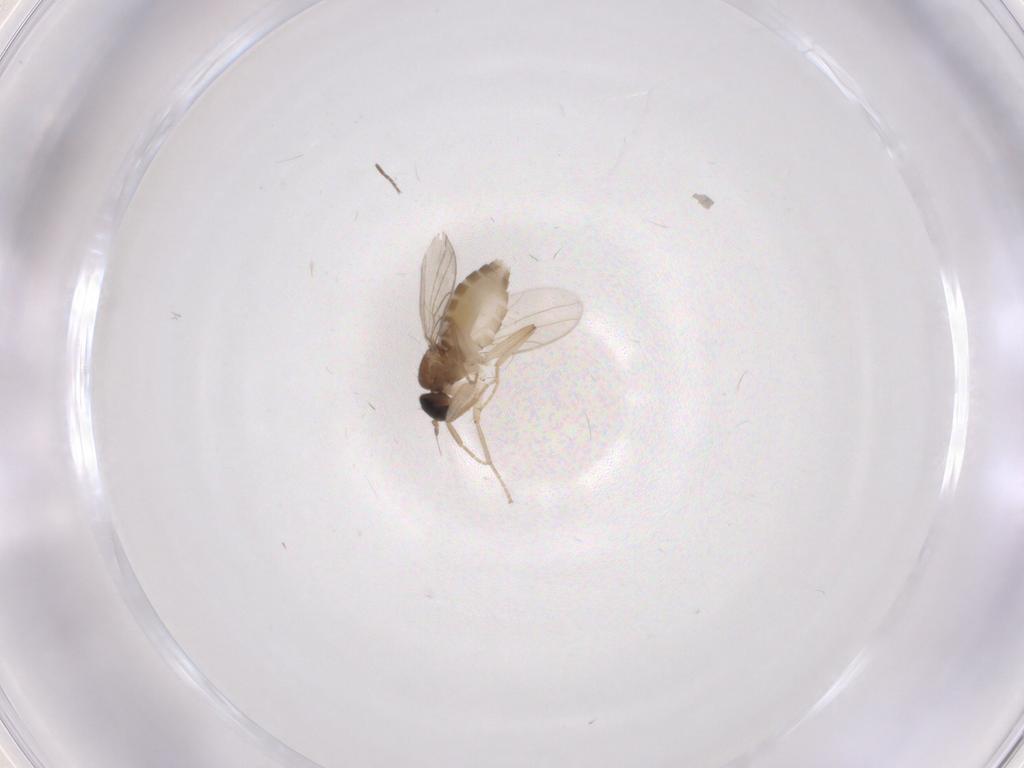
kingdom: Animalia
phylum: Arthropoda
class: Insecta
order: Diptera
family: Hybotidae
